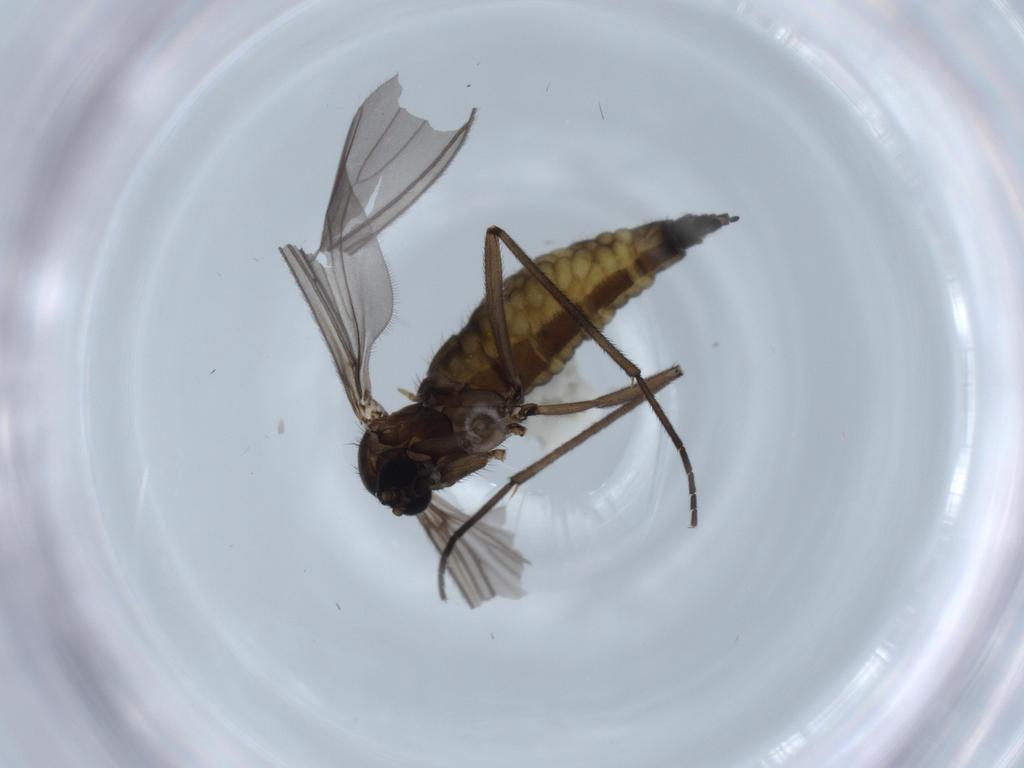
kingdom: Animalia
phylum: Arthropoda
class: Insecta
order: Diptera
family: Sciaridae
